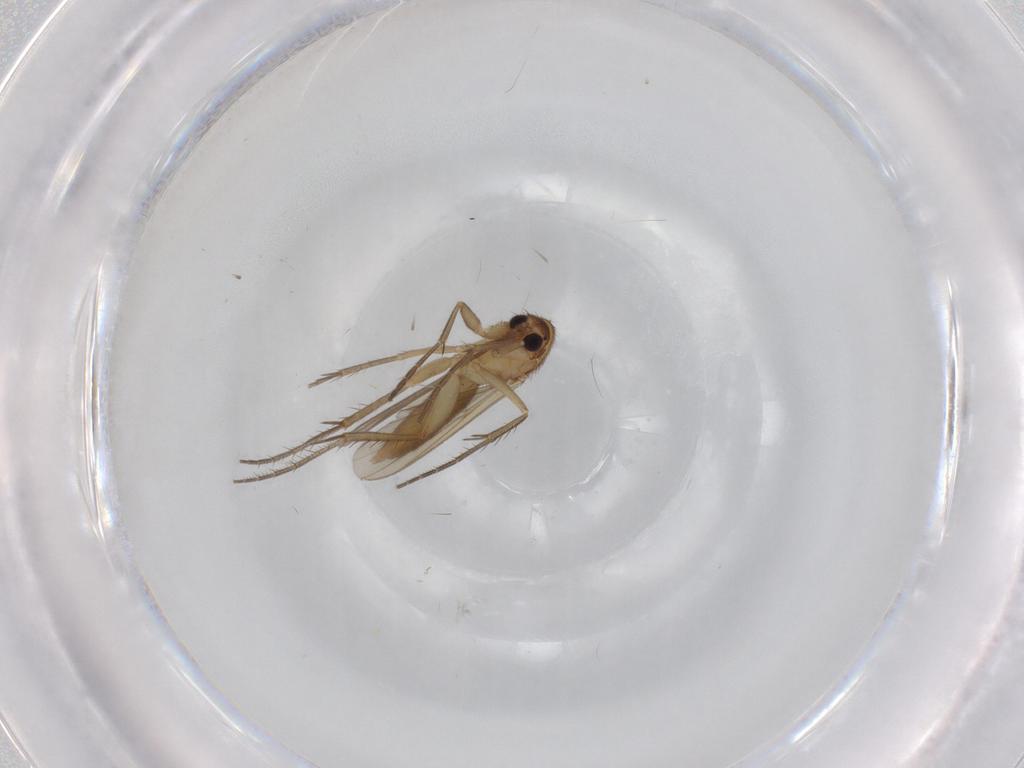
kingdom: Animalia
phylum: Arthropoda
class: Insecta
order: Diptera
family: Mycetophilidae
